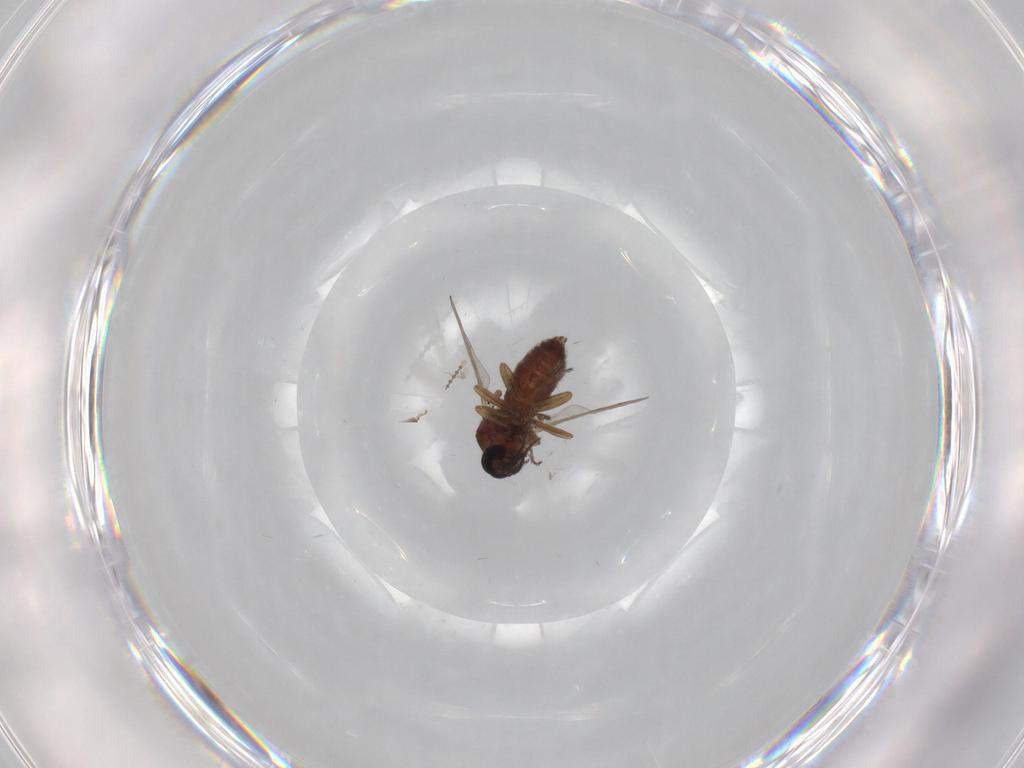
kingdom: Animalia
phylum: Arthropoda
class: Insecta
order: Diptera
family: Ceratopogonidae
